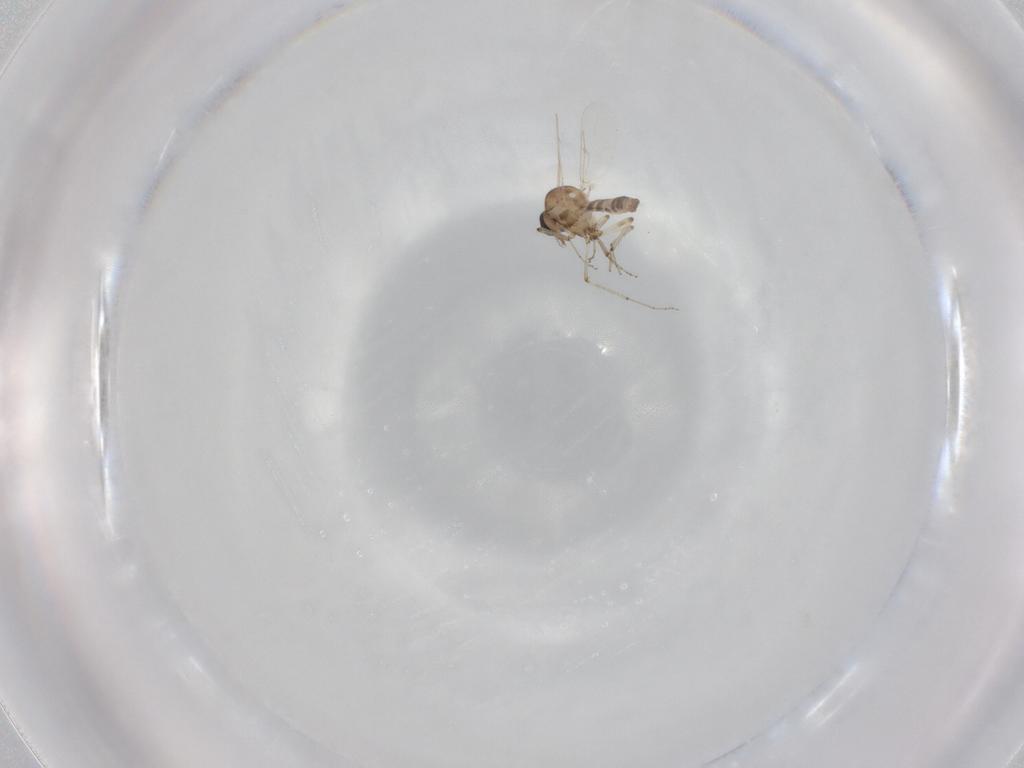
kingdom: Animalia
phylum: Arthropoda
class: Insecta
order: Diptera
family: Ceratopogonidae
